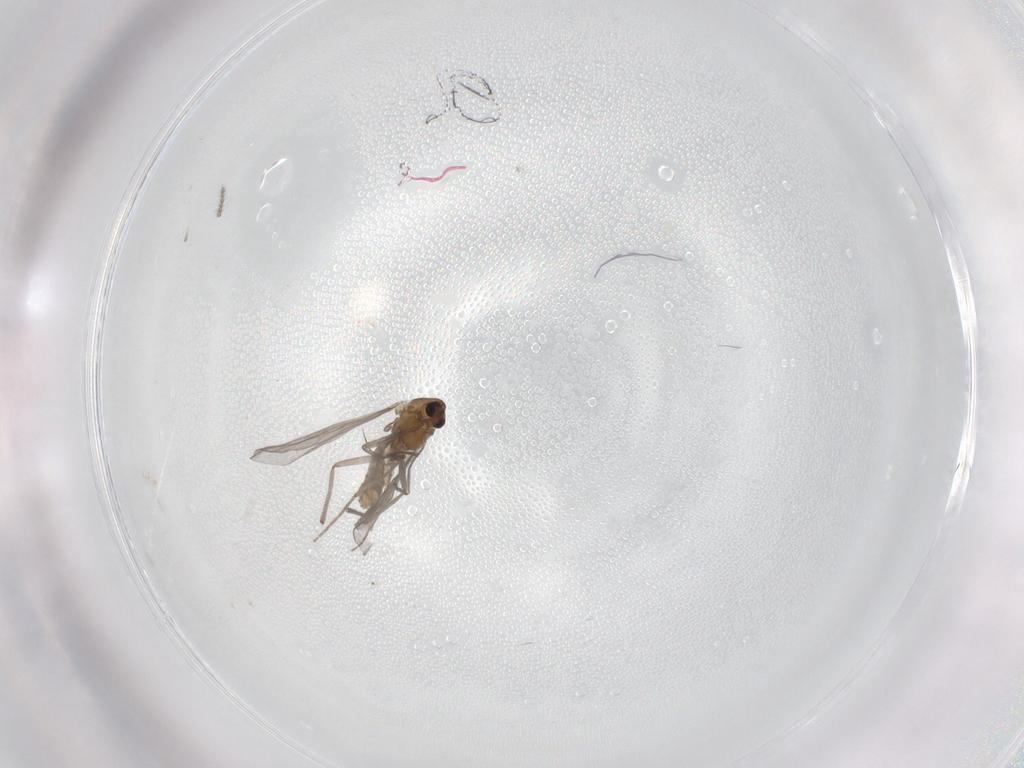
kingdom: Animalia
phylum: Arthropoda
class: Insecta
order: Diptera
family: Chironomidae
